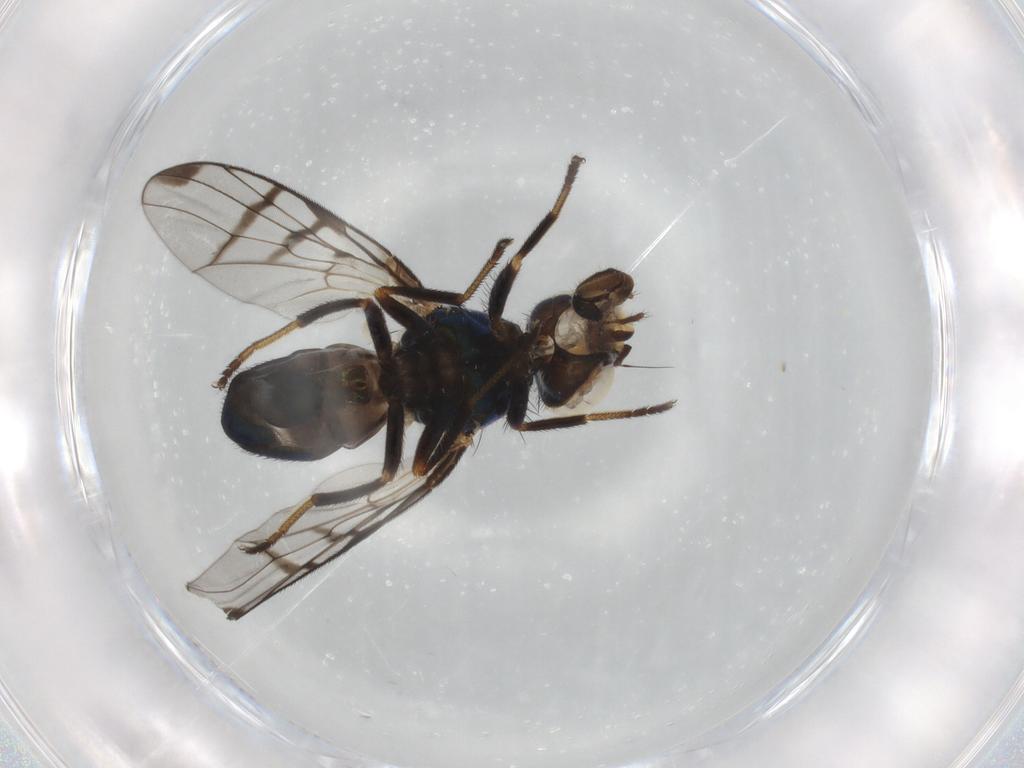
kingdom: Animalia
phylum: Arthropoda
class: Insecta
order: Diptera
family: Platystomatidae
